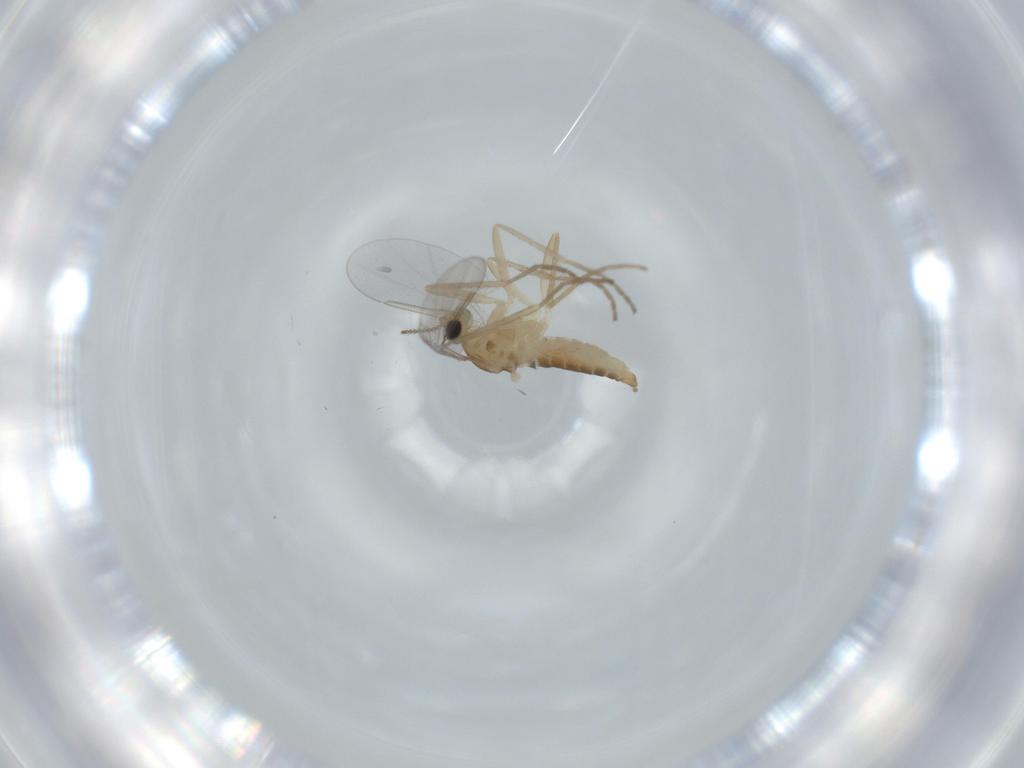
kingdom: Animalia
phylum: Arthropoda
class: Insecta
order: Diptera
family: Cecidomyiidae
